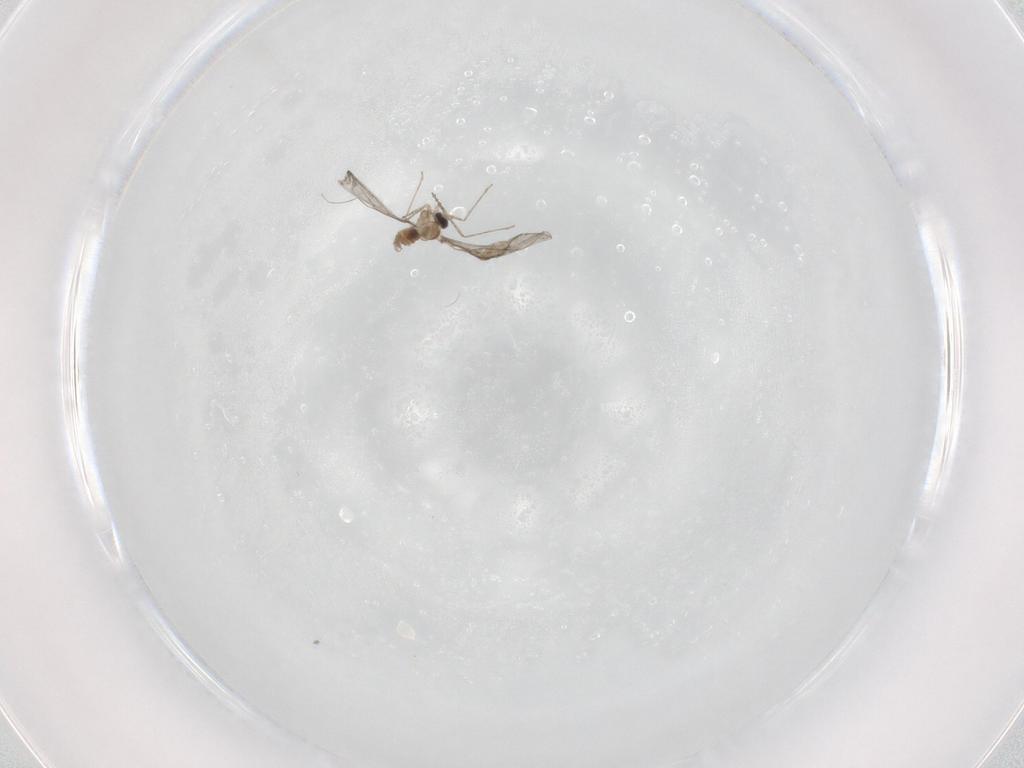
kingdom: Animalia
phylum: Arthropoda
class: Insecta
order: Diptera
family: Cecidomyiidae
